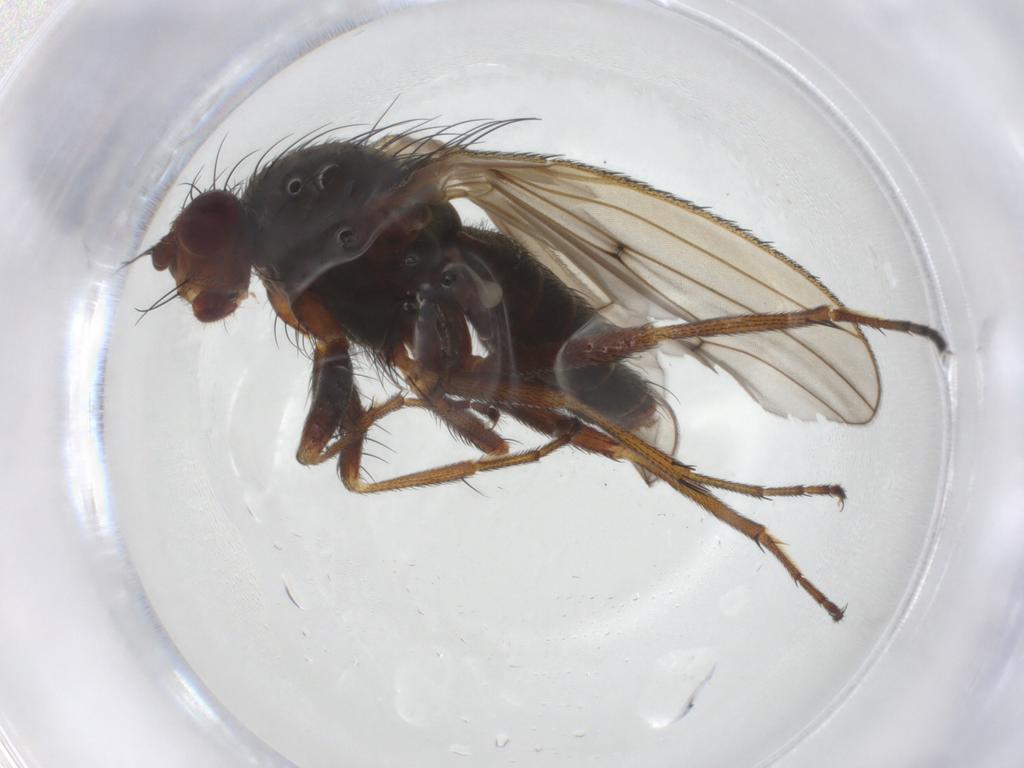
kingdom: Animalia
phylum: Arthropoda
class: Insecta
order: Diptera
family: Heleomyzidae
